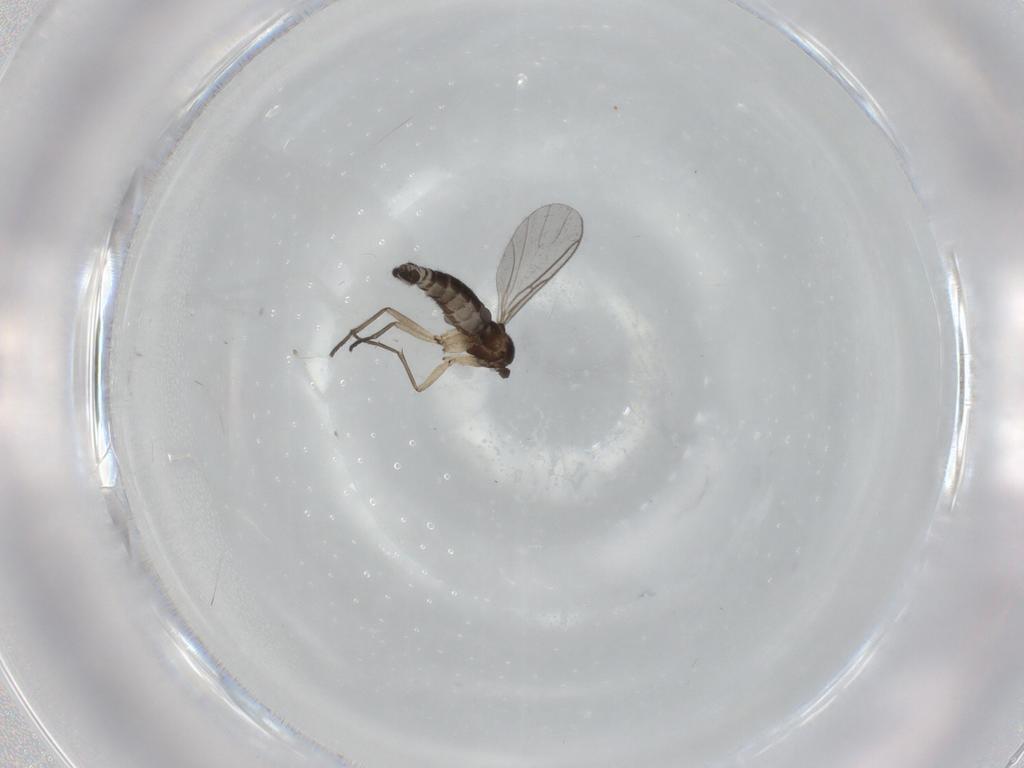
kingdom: Animalia
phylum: Arthropoda
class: Insecta
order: Diptera
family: Sciaridae
